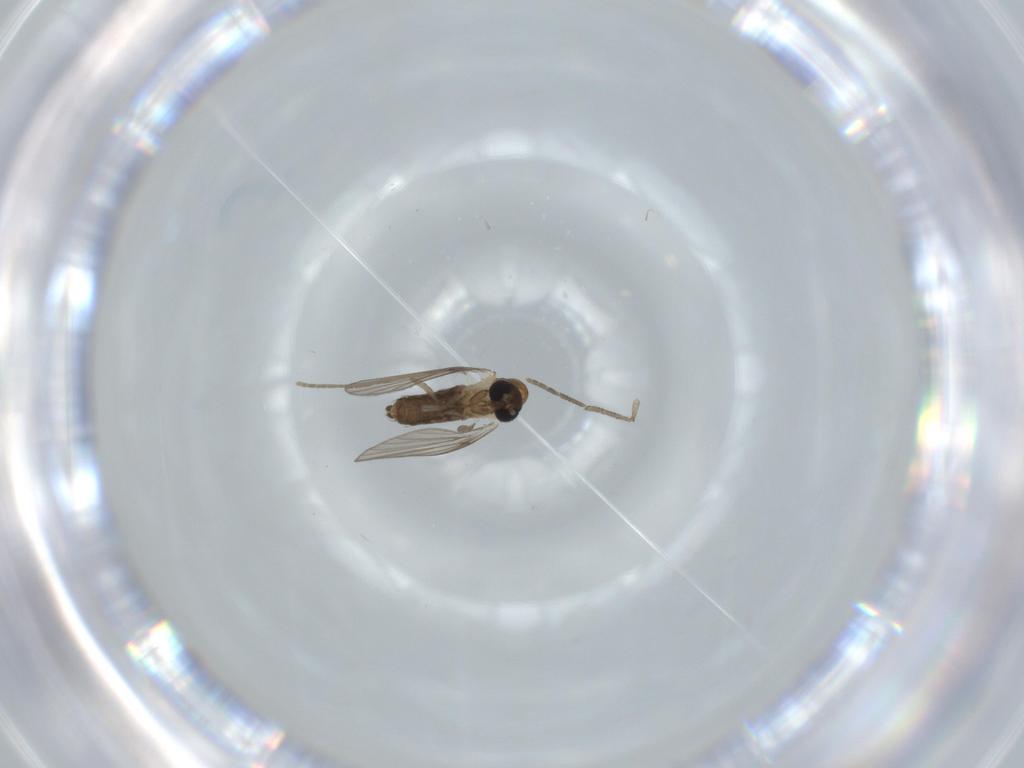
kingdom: Animalia
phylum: Arthropoda
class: Insecta
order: Diptera
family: Psychodidae
